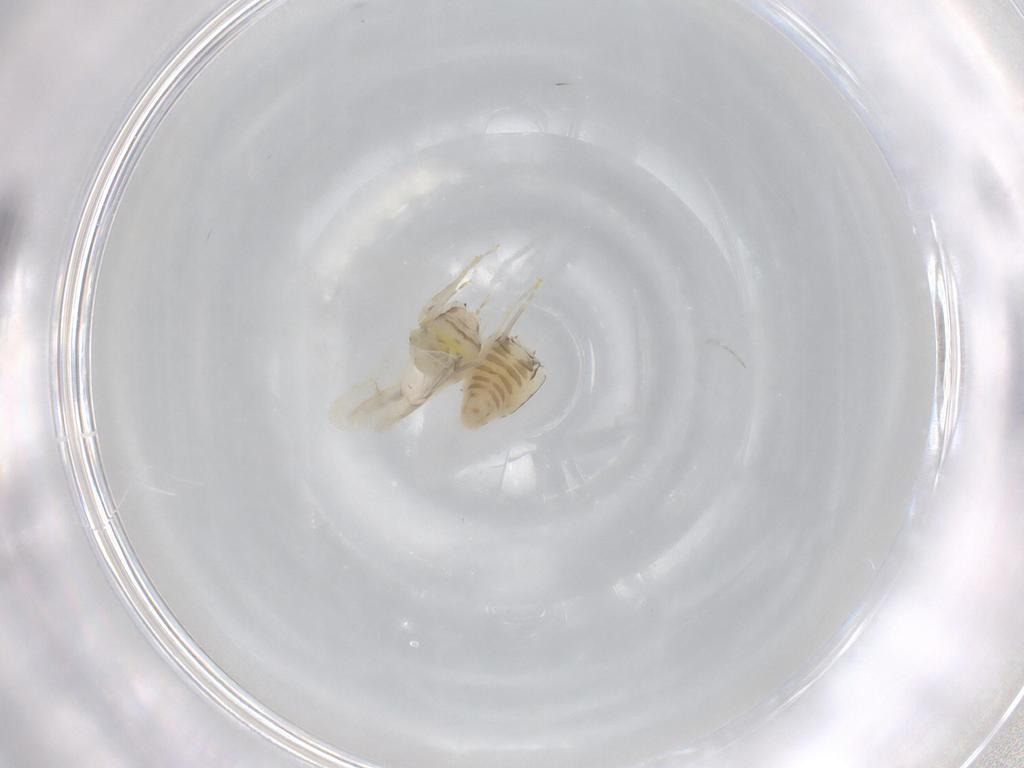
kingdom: Animalia
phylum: Arthropoda
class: Insecta
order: Hemiptera
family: Aleyrodidae
